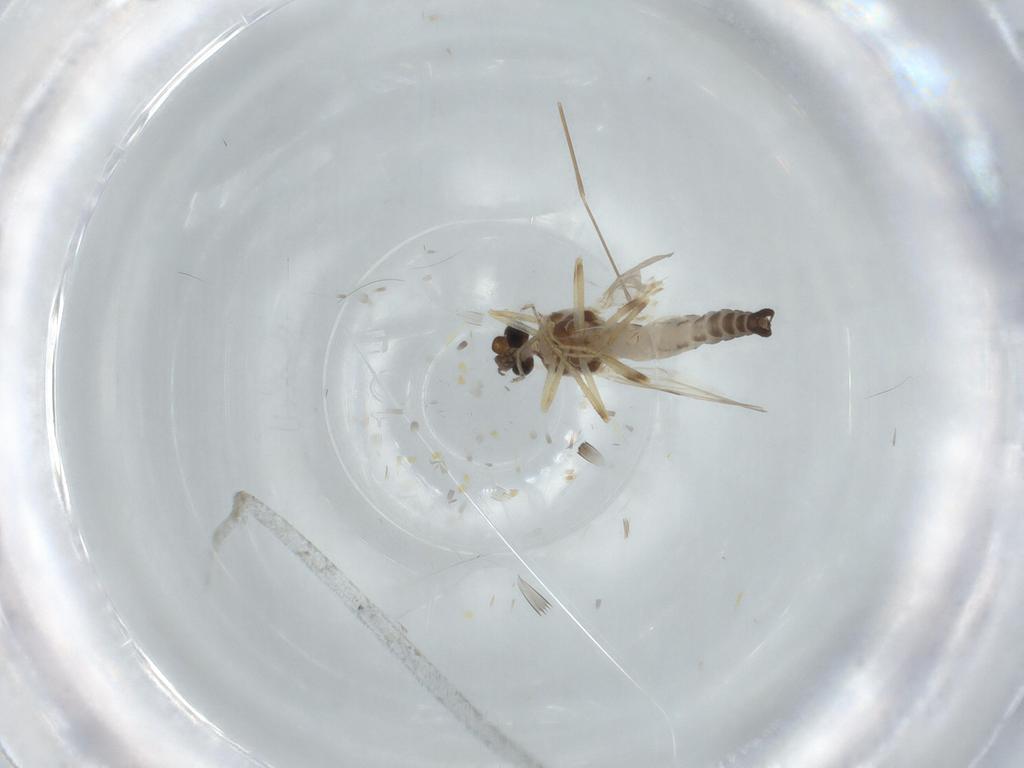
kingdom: Animalia
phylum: Arthropoda
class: Insecta
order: Diptera
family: Ceratopogonidae
